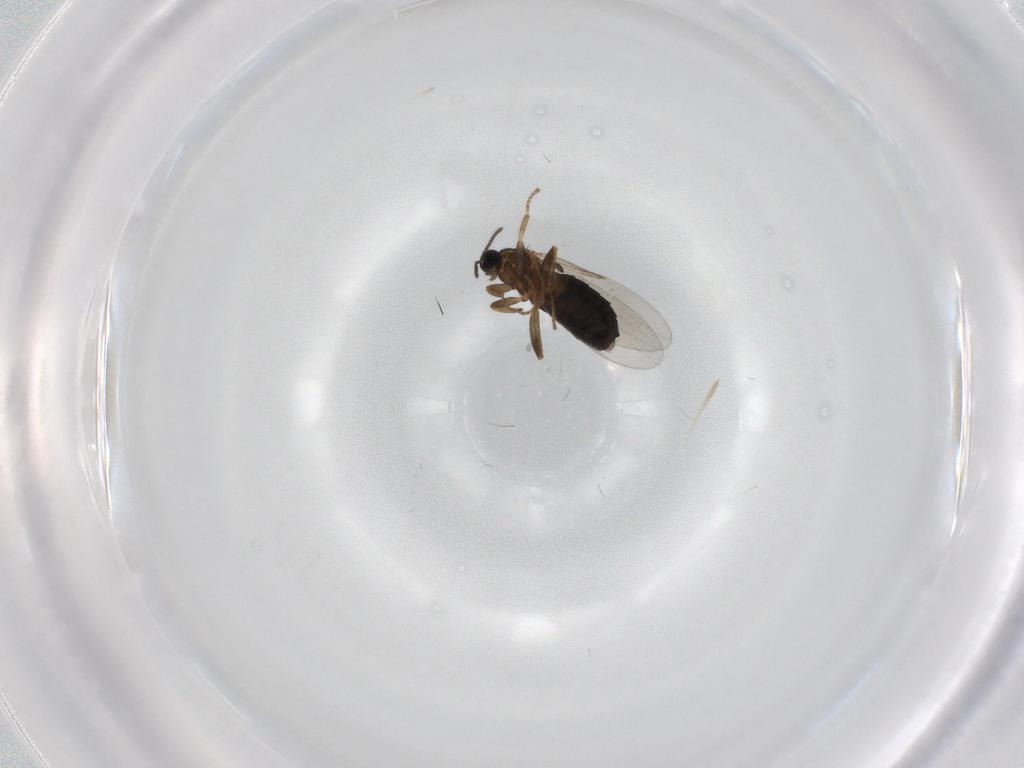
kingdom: Animalia
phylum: Arthropoda
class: Insecta
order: Diptera
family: Scatopsidae
